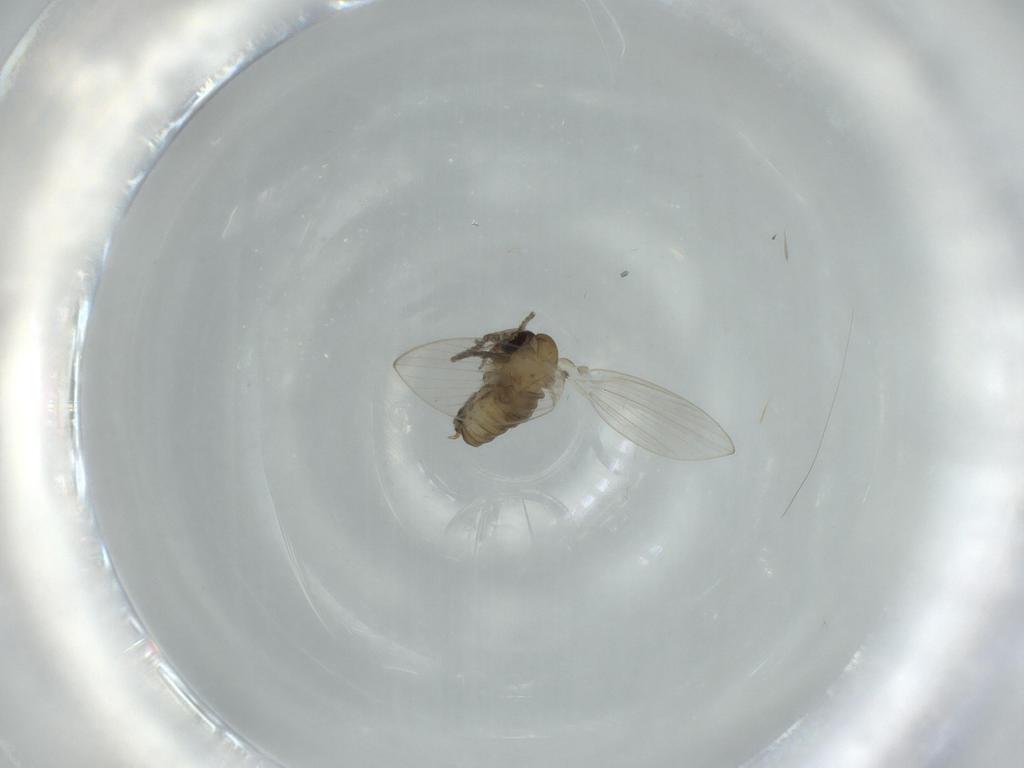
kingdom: Animalia
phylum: Arthropoda
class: Insecta
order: Diptera
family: Psychodidae
